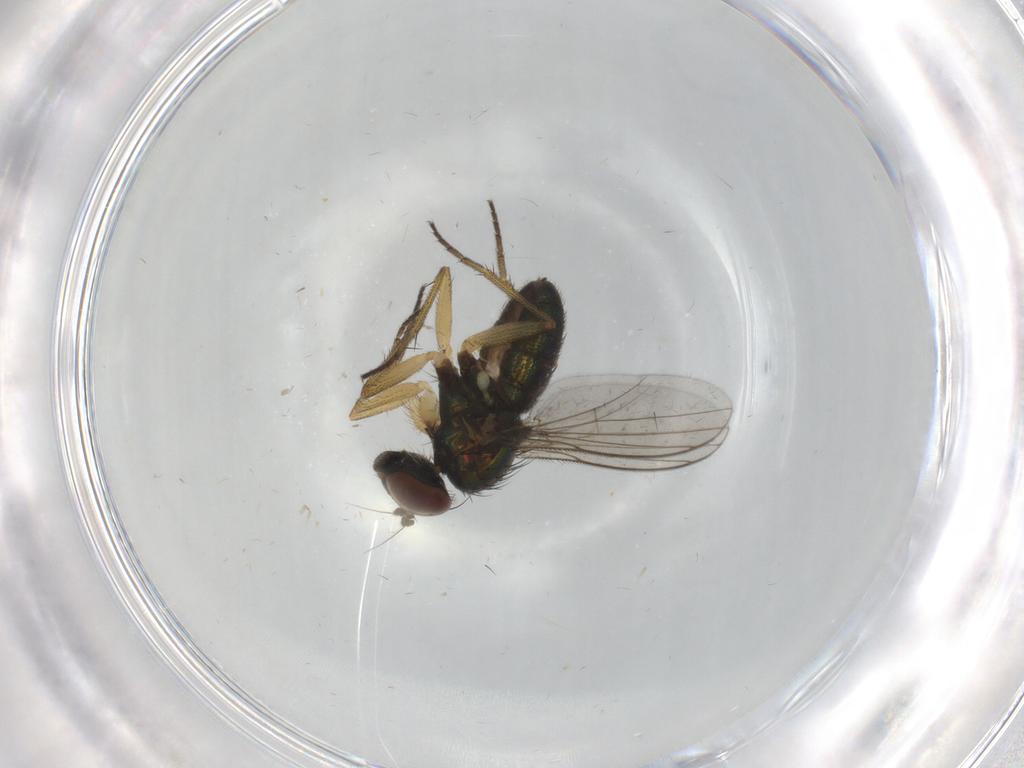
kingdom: Animalia
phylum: Arthropoda
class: Insecta
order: Diptera
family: Dolichopodidae
